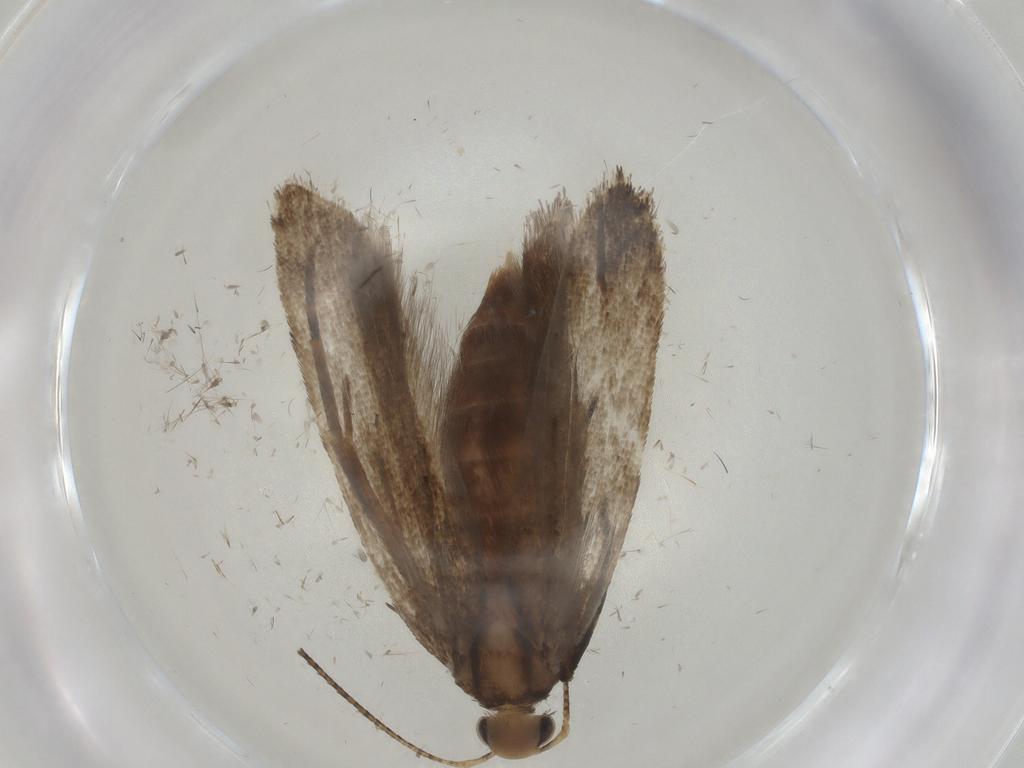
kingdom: Animalia
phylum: Arthropoda
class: Insecta
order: Lepidoptera
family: Gelechiidae
